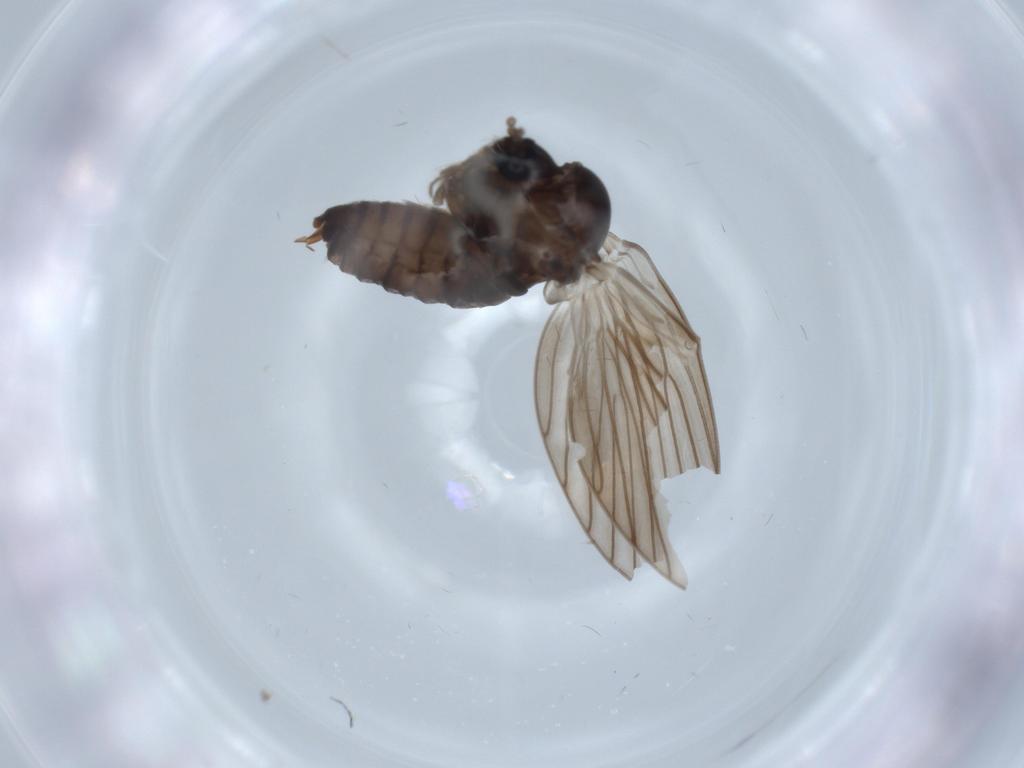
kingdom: Animalia
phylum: Arthropoda
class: Insecta
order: Diptera
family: Psychodidae
